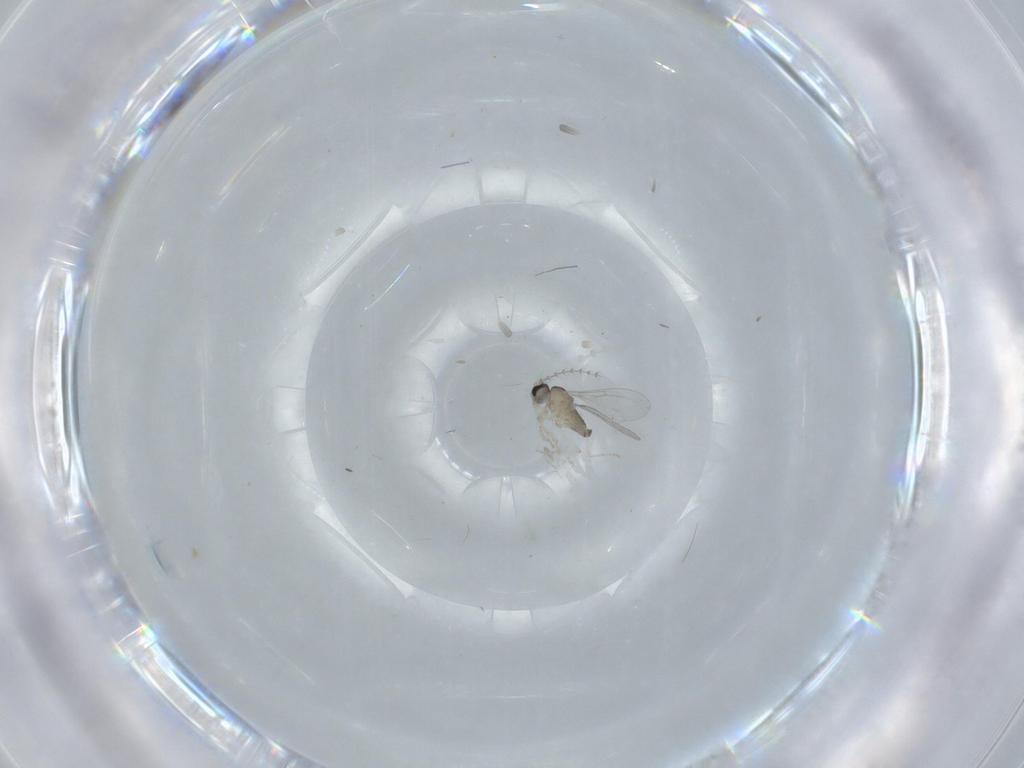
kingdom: Animalia
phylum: Arthropoda
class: Insecta
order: Diptera
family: Cecidomyiidae
